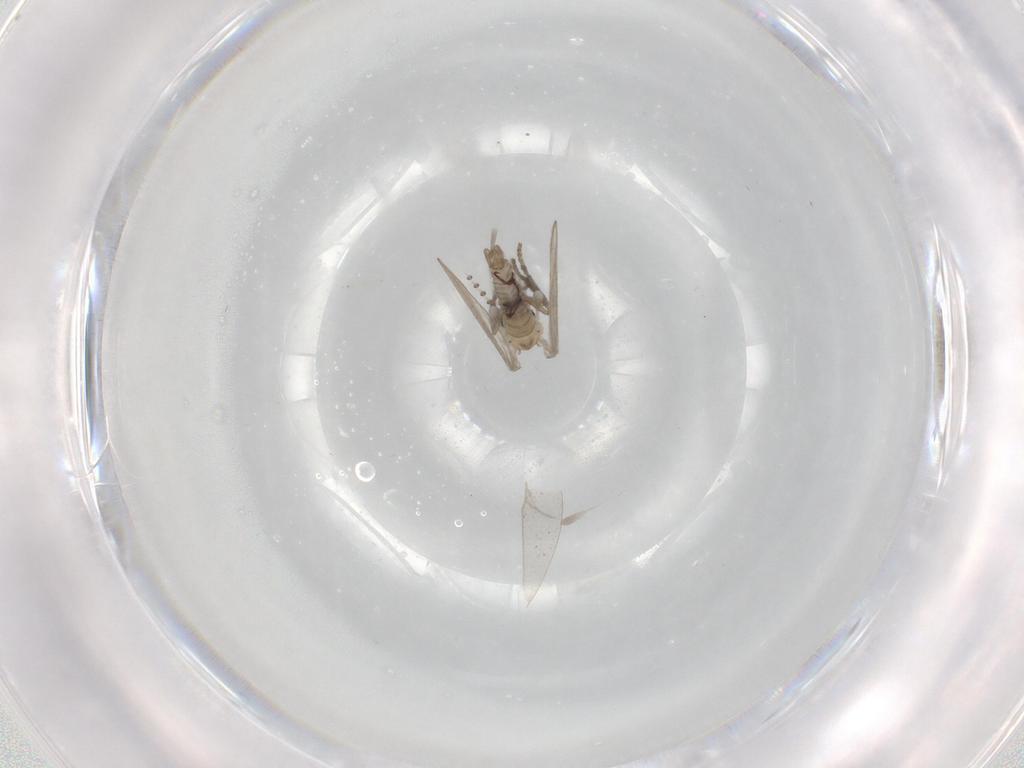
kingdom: Animalia
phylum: Arthropoda
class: Insecta
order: Diptera
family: Psychodidae
